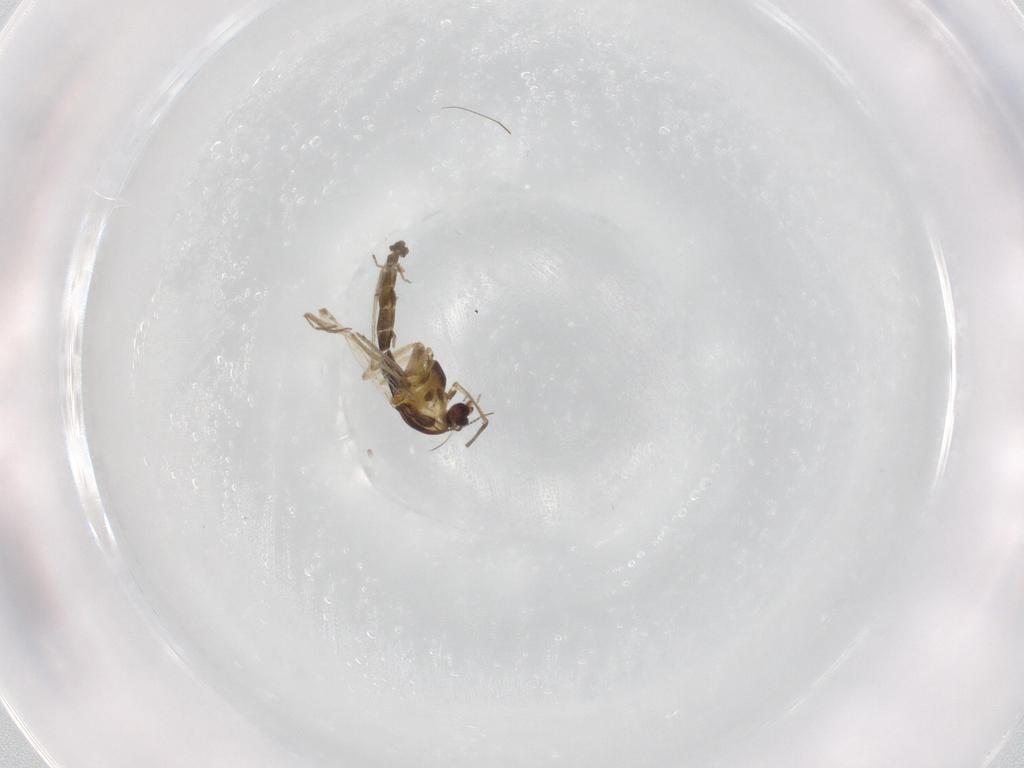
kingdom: Animalia
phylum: Arthropoda
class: Insecta
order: Diptera
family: Chironomidae
